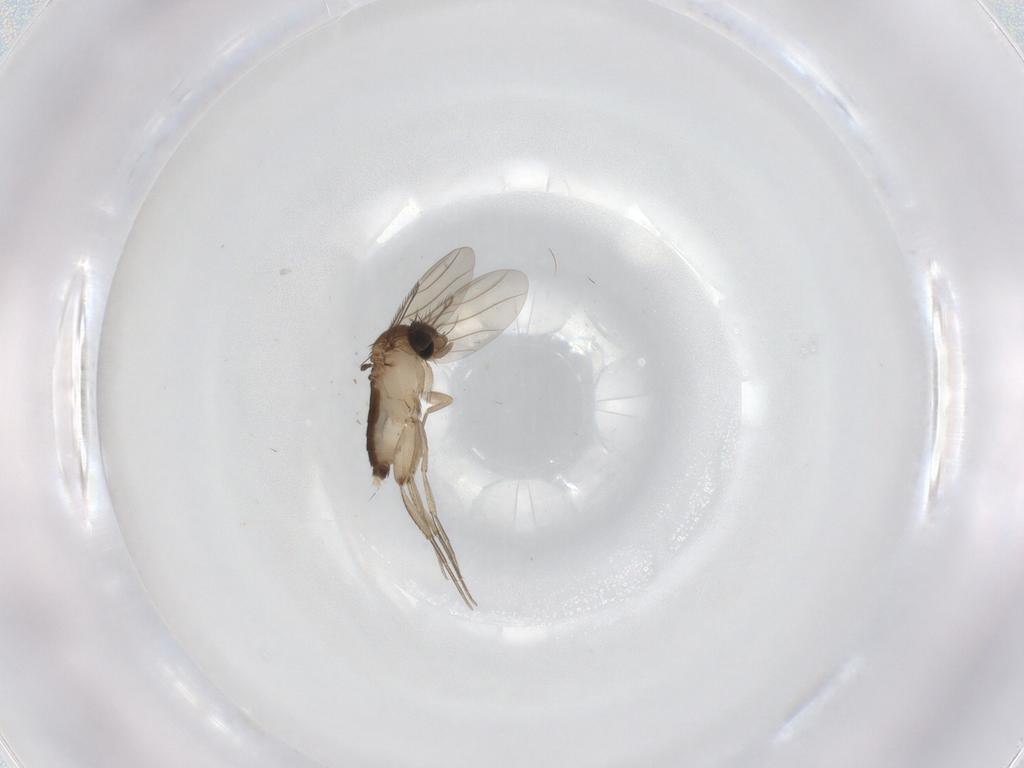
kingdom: Animalia
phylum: Arthropoda
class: Insecta
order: Diptera
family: Phoridae
